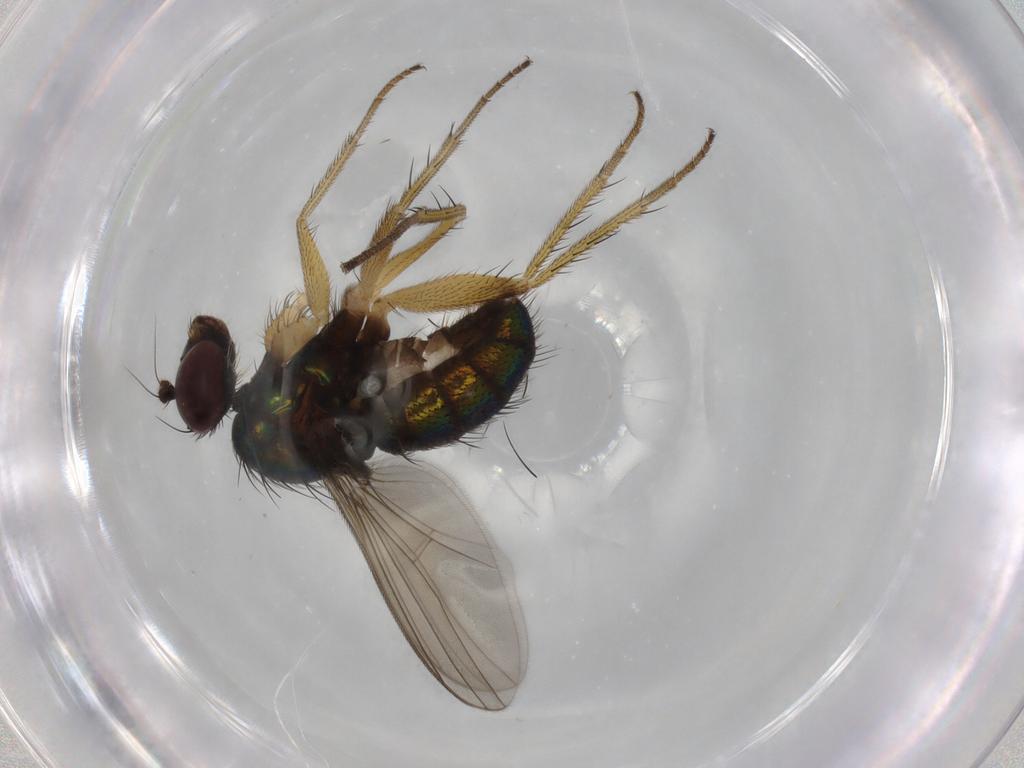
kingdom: Animalia
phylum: Arthropoda
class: Insecta
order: Diptera
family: Dolichopodidae
